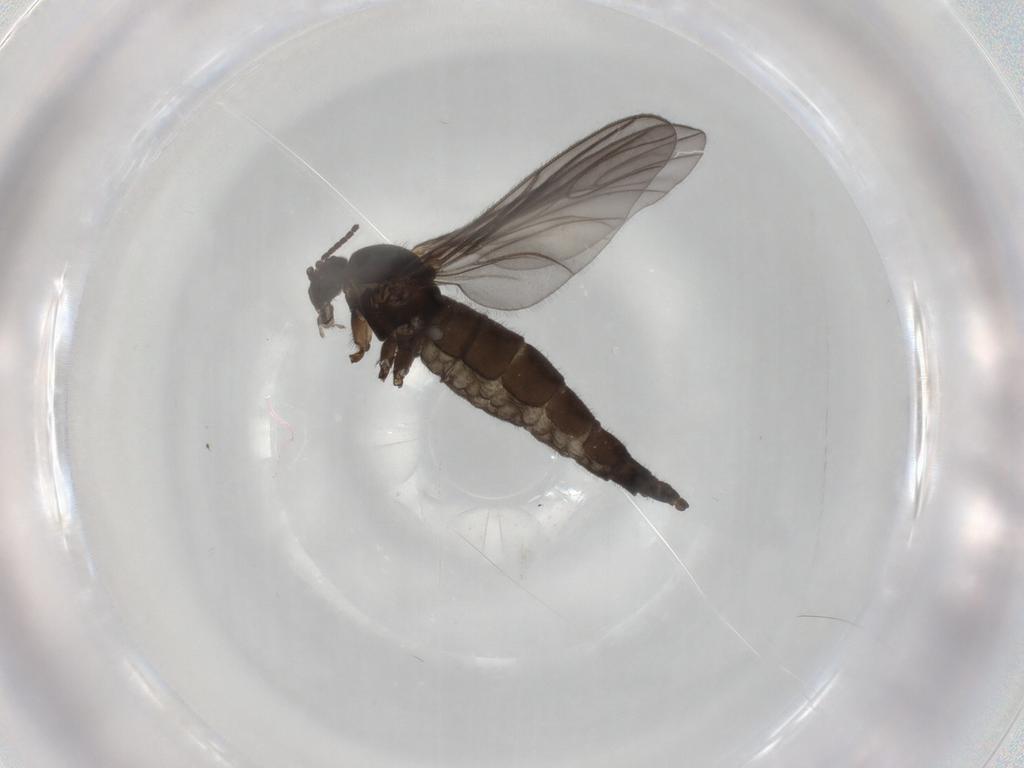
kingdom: Animalia
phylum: Arthropoda
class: Insecta
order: Diptera
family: Sciaridae
